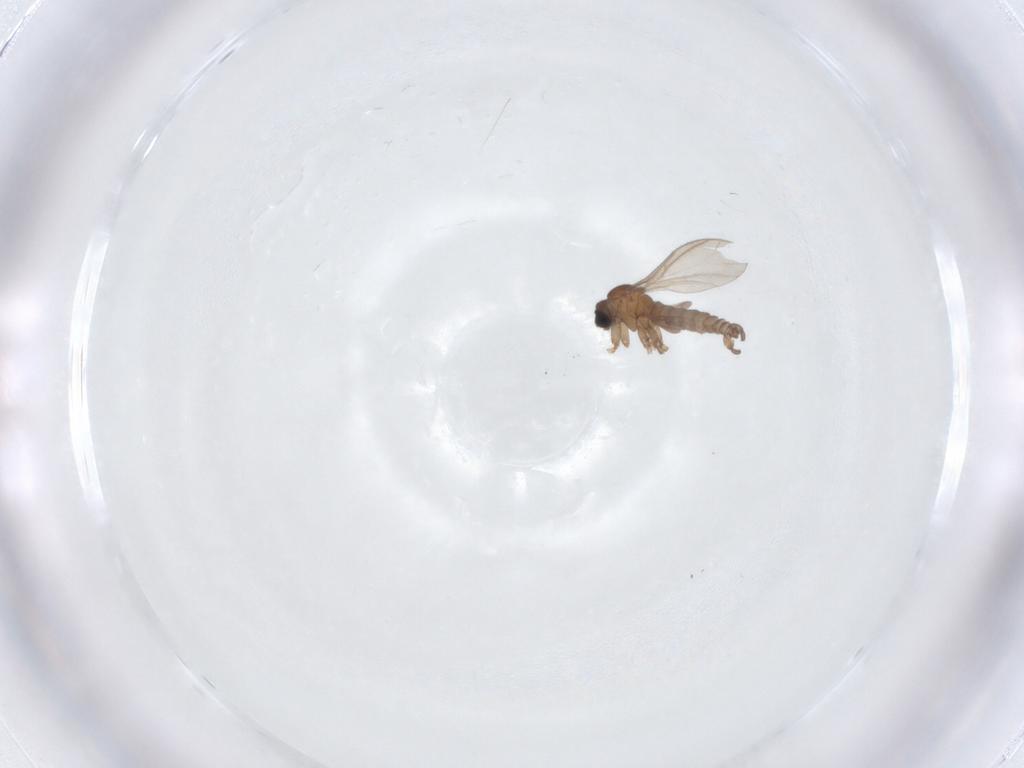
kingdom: Animalia
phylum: Arthropoda
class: Insecta
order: Diptera
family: Sciaridae
